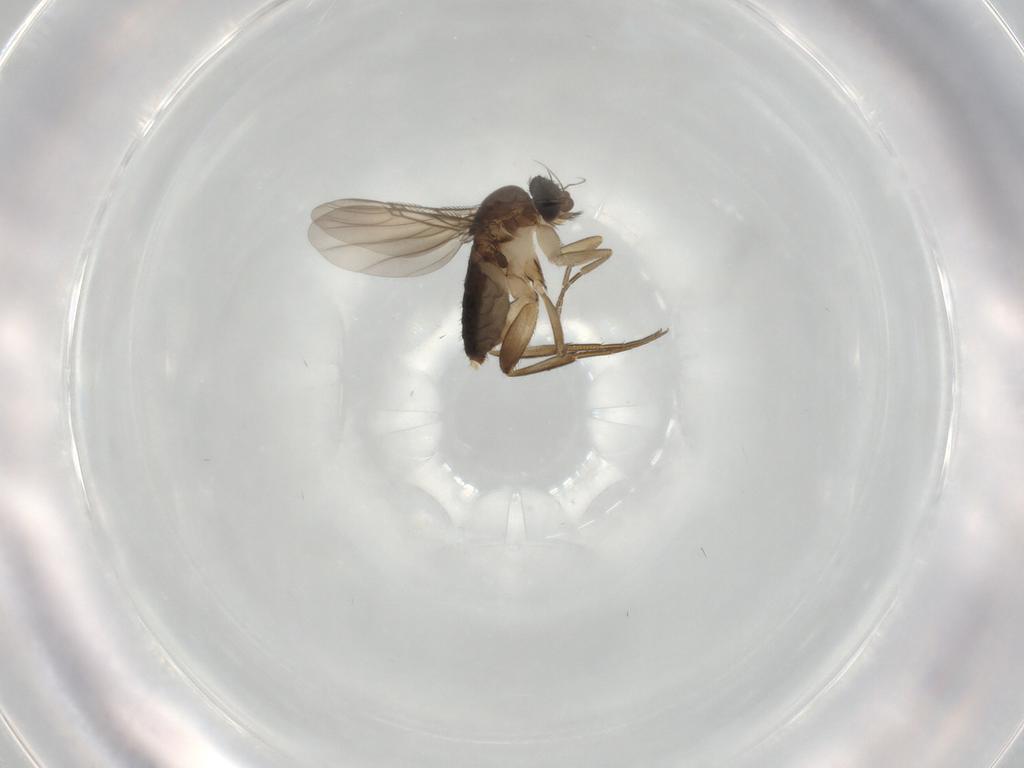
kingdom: Animalia
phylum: Arthropoda
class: Insecta
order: Diptera
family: Phoridae
